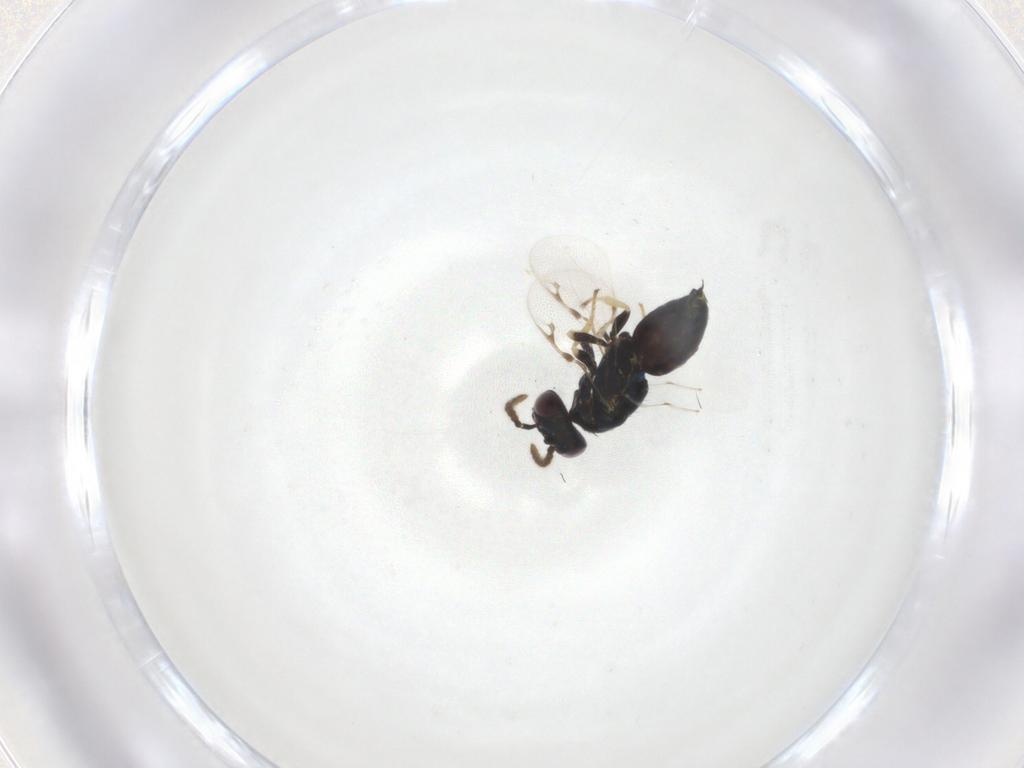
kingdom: Animalia
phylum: Arthropoda
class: Insecta
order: Hymenoptera
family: Pirenidae
